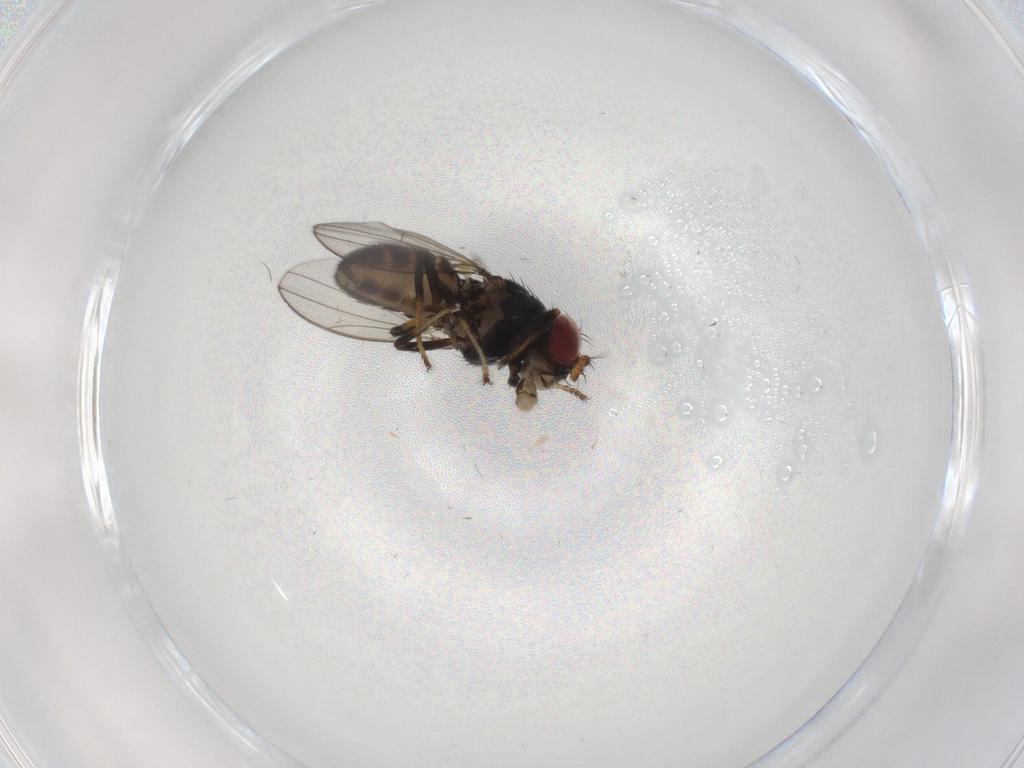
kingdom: Animalia
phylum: Arthropoda
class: Insecta
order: Diptera
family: Ephydridae
